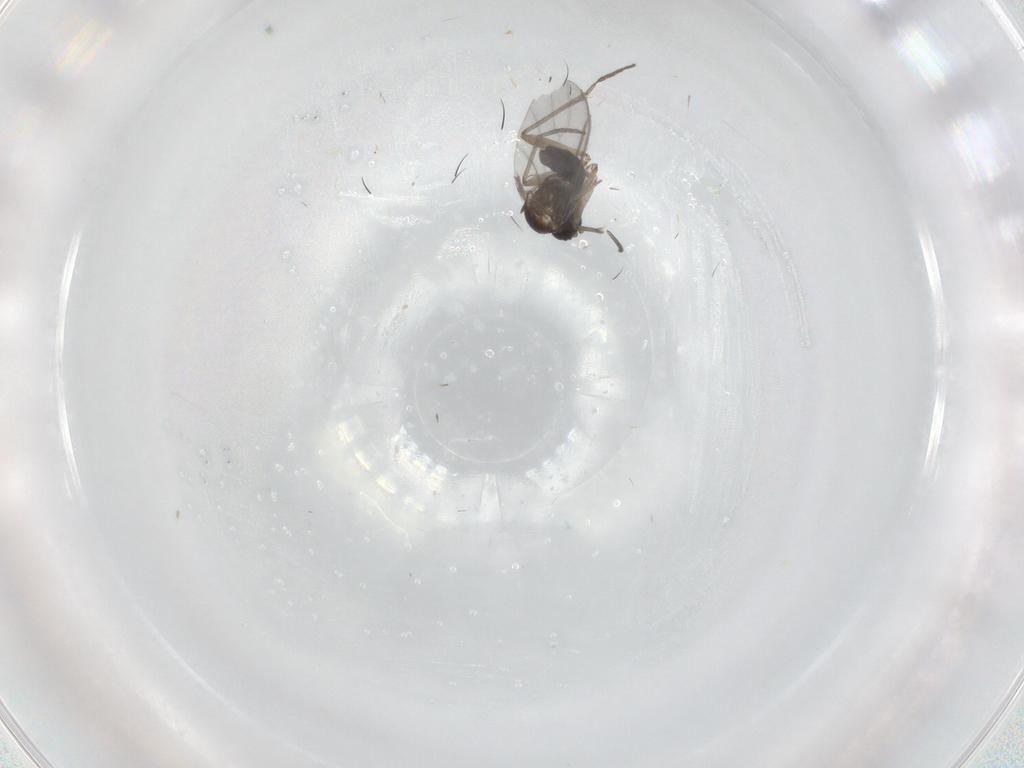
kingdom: Animalia
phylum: Arthropoda
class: Insecta
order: Diptera
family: Sciaridae
